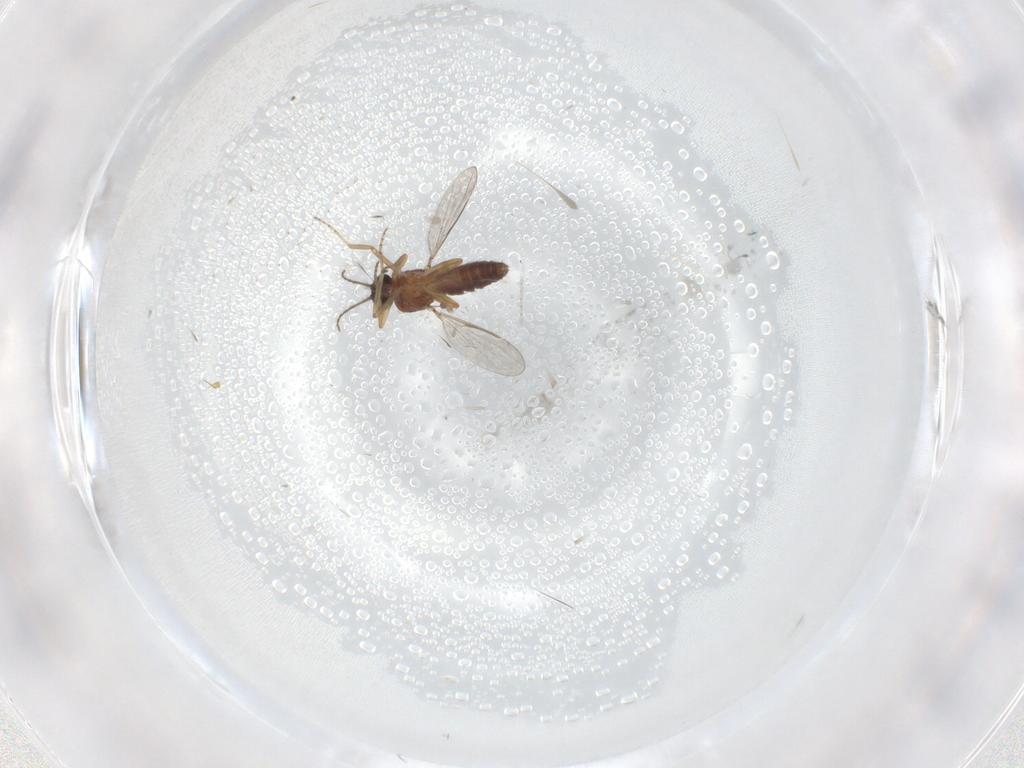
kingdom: Animalia
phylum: Arthropoda
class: Insecta
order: Diptera
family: Ceratopogonidae
